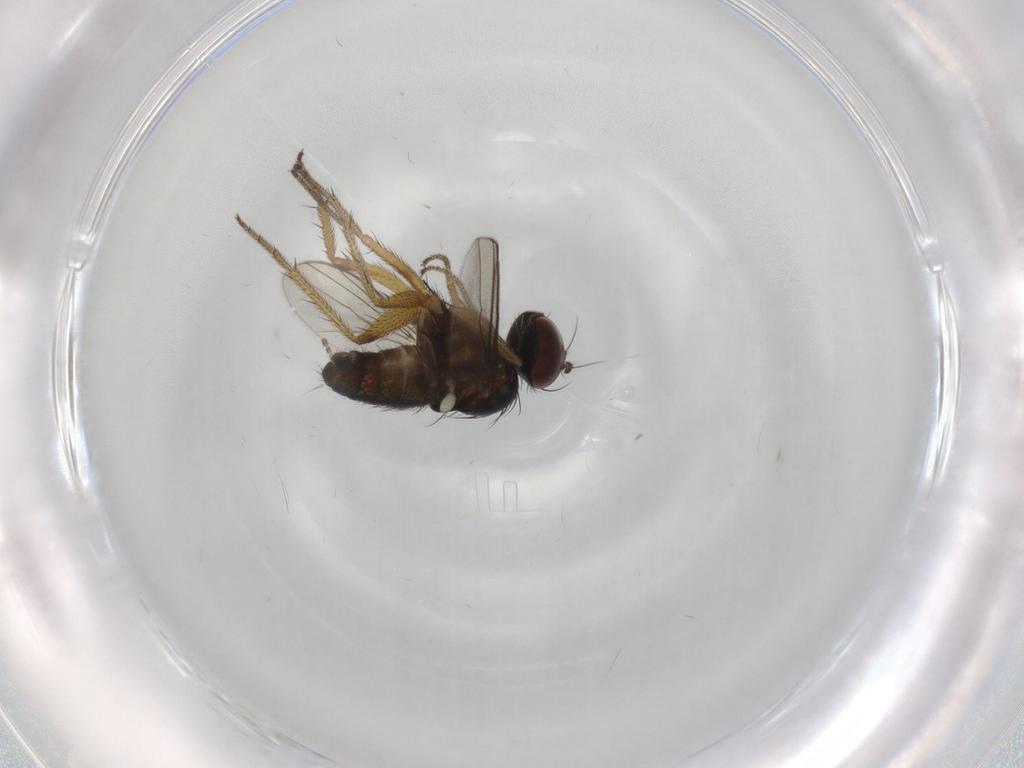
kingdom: Animalia
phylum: Arthropoda
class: Insecta
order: Diptera
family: Dolichopodidae
